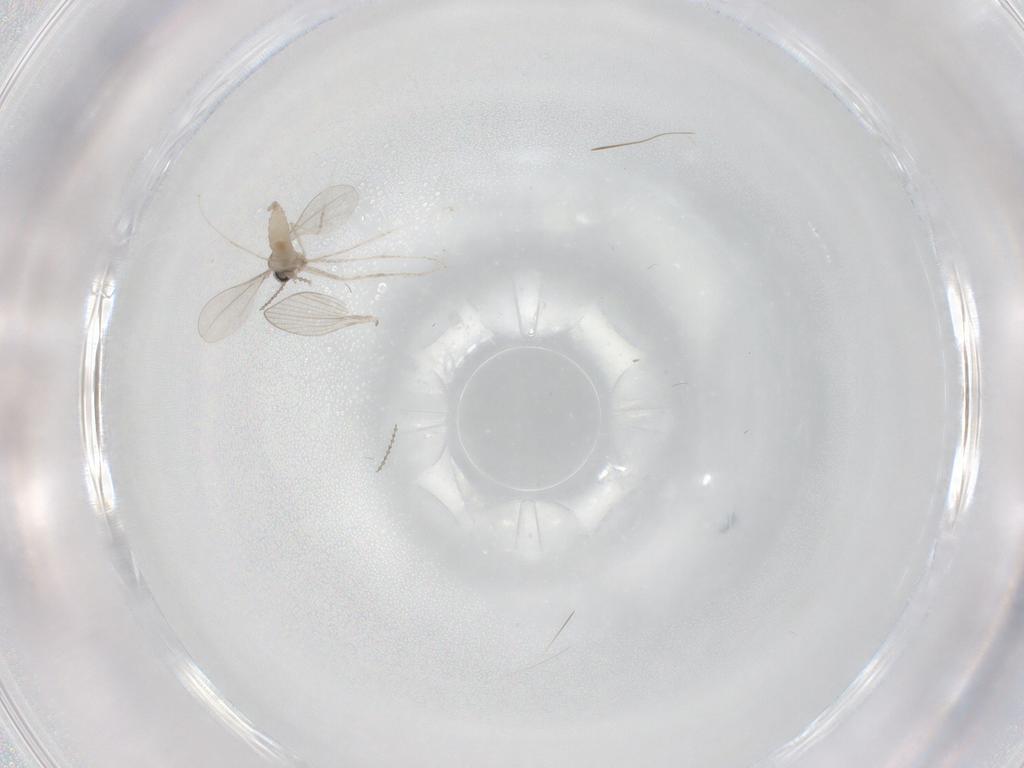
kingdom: Animalia
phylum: Arthropoda
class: Insecta
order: Diptera
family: Cecidomyiidae
